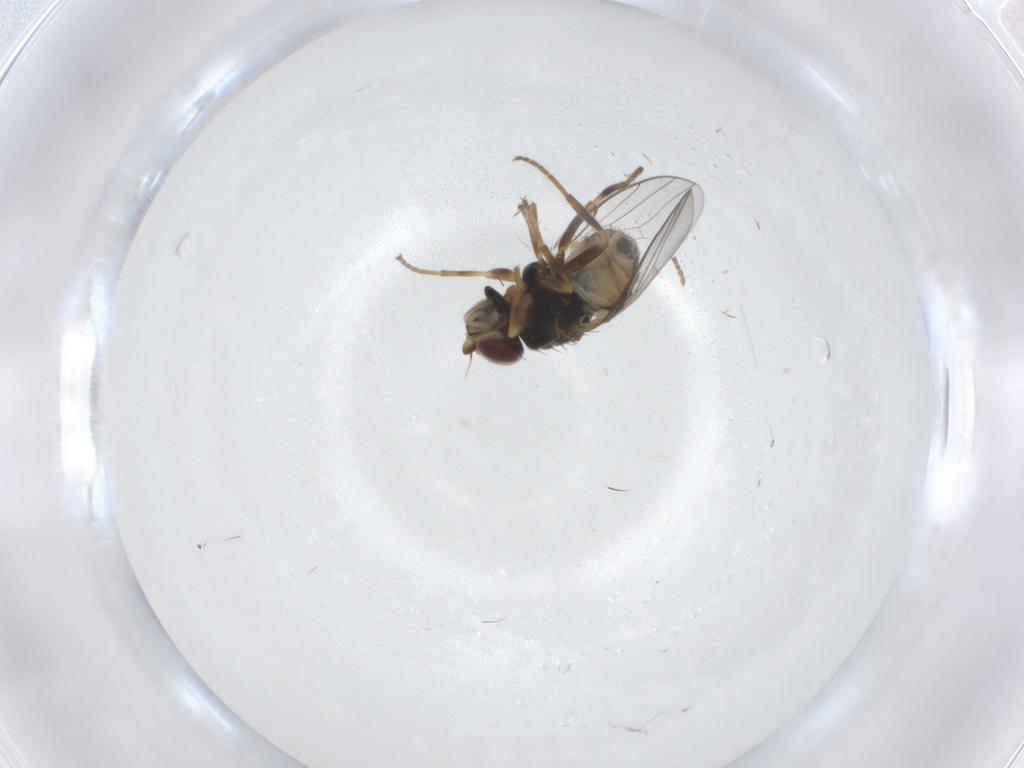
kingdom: Animalia
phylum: Arthropoda
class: Insecta
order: Diptera
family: Chloropidae
